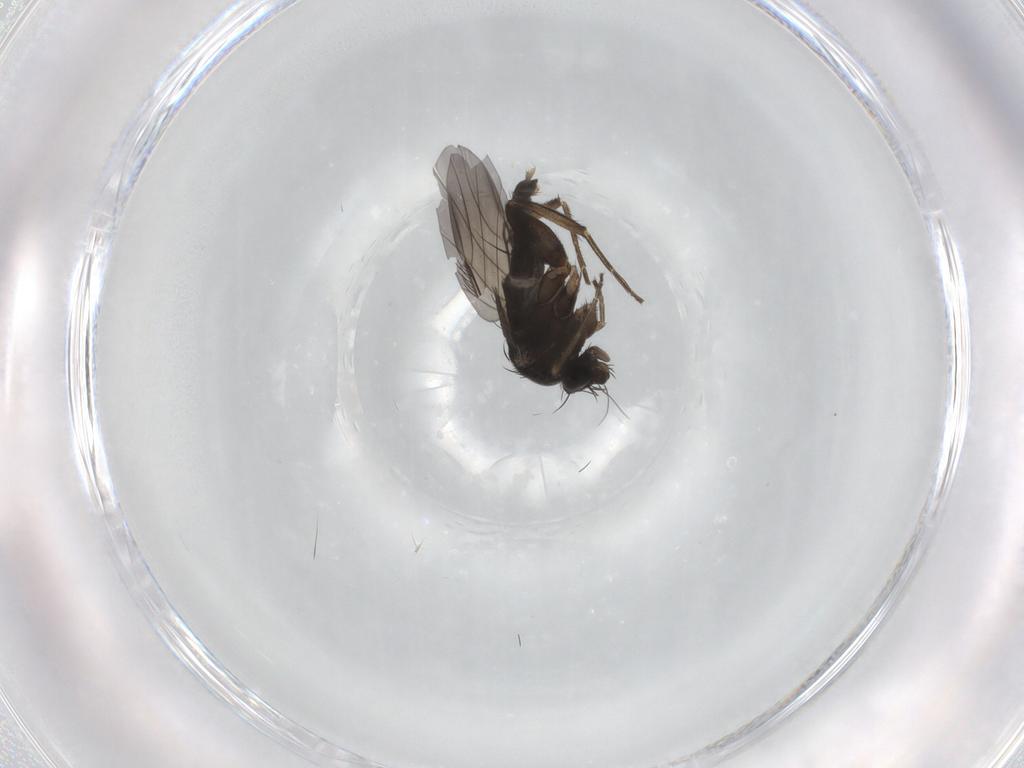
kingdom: Animalia
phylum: Arthropoda
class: Insecta
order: Diptera
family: Phoridae
